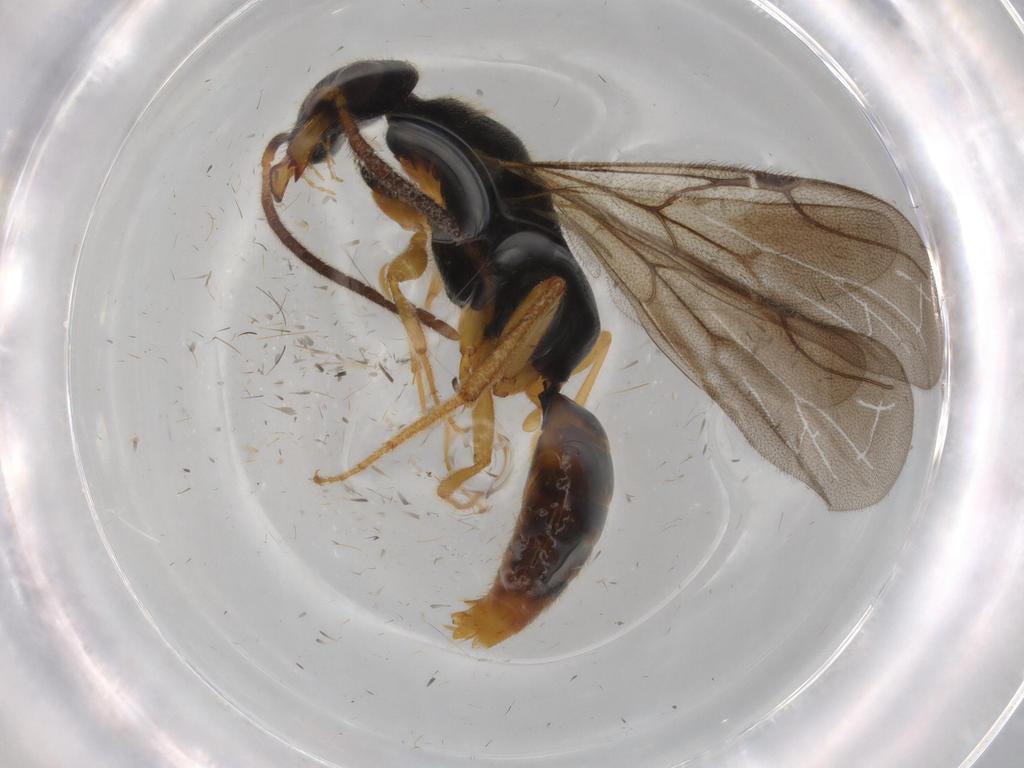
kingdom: Animalia
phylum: Arthropoda
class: Insecta
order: Hymenoptera
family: Bethylidae
